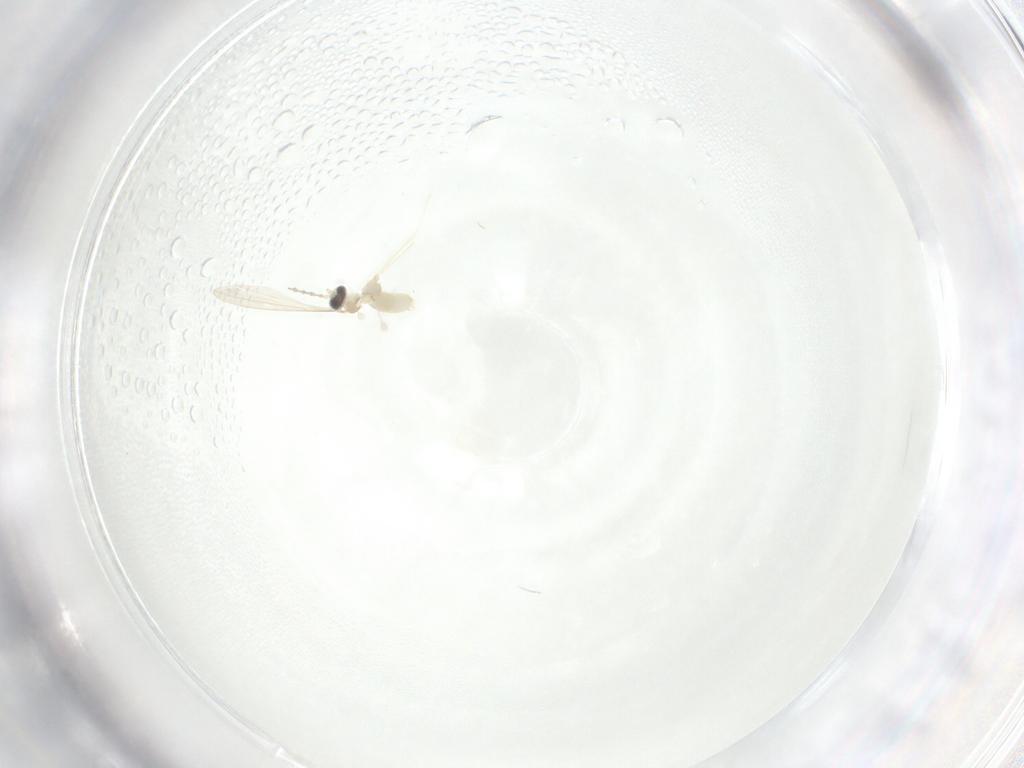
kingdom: Animalia
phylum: Arthropoda
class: Insecta
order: Diptera
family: Cecidomyiidae
